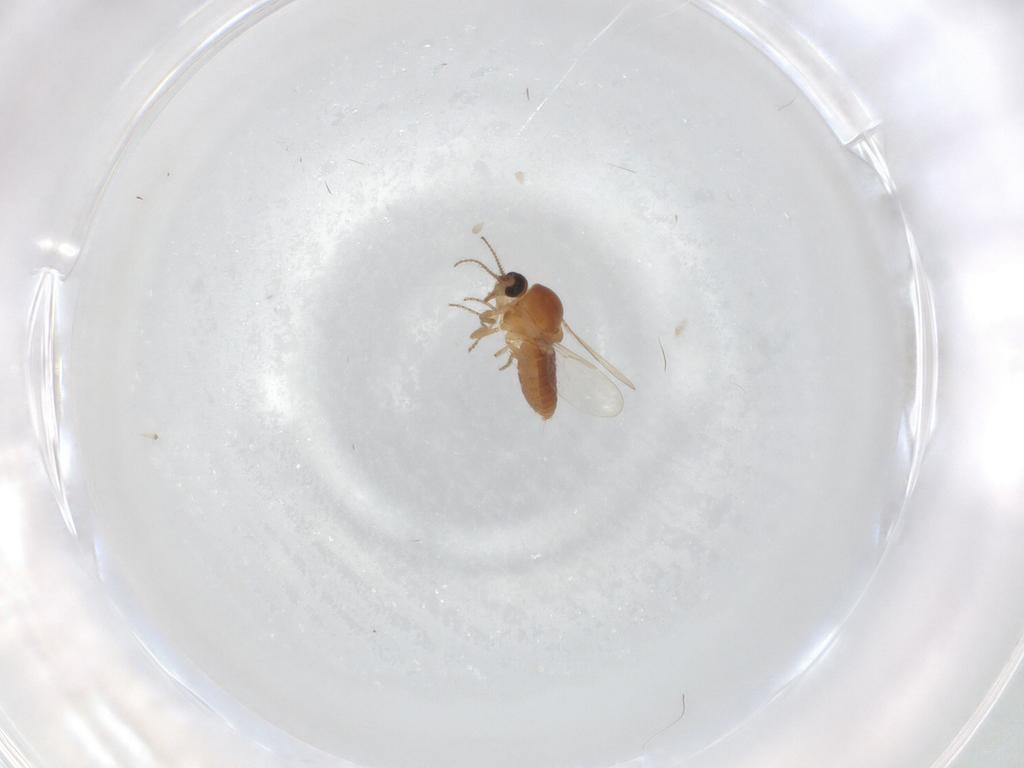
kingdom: Animalia
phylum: Arthropoda
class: Insecta
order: Diptera
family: Ceratopogonidae
